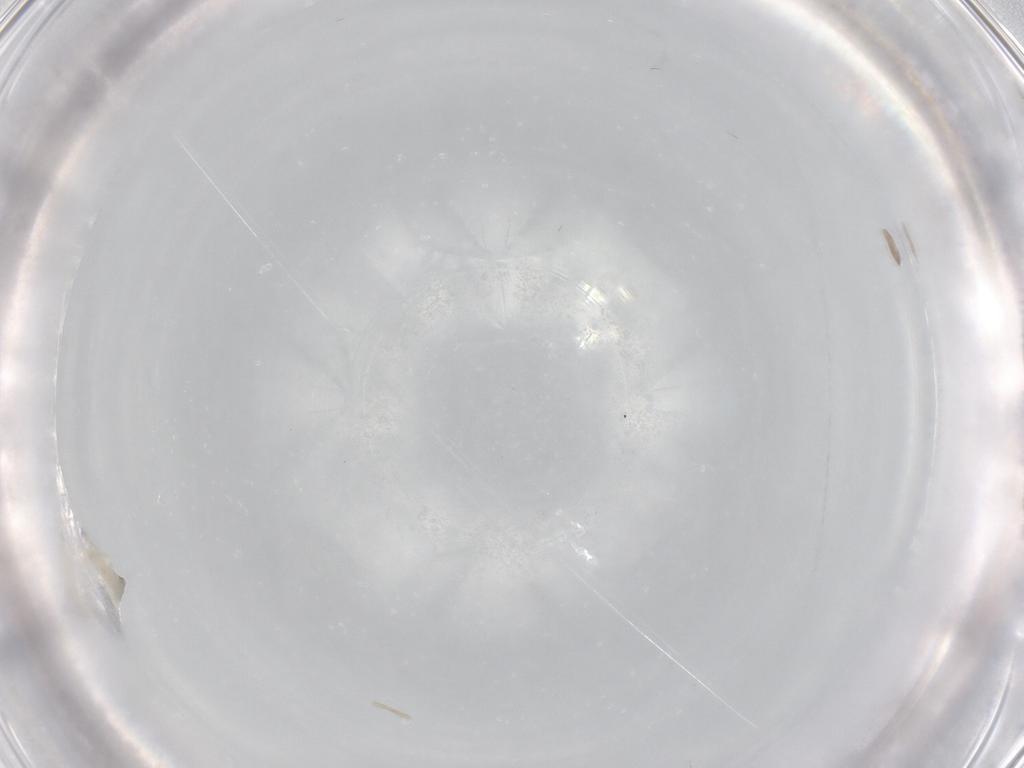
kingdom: Animalia
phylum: Arthropoda
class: Insecta
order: Diptera
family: Cecidomyiidae
